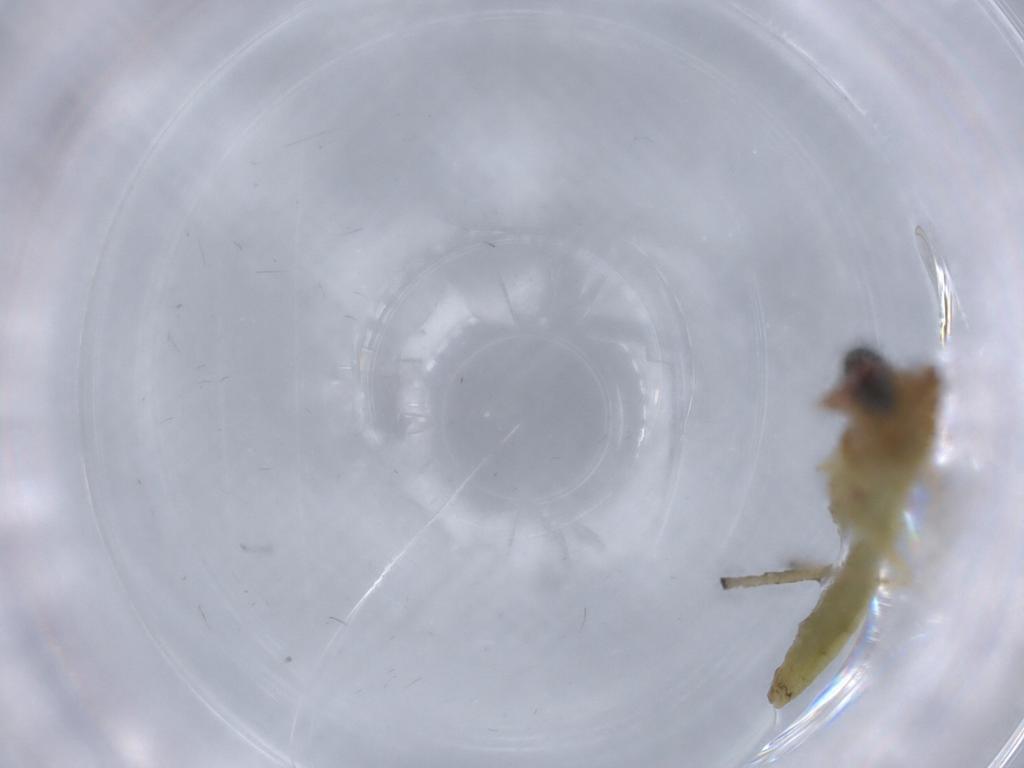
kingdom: Animalia
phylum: Arthropoda
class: Insecta
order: Diptera
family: Chironomidae
